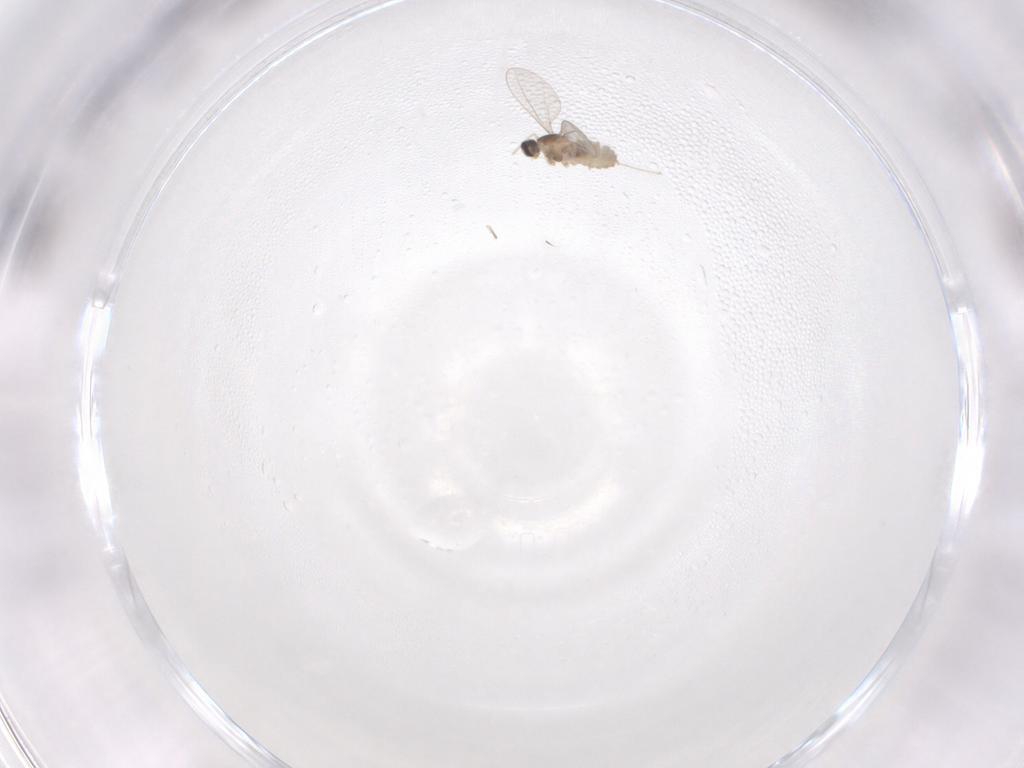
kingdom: Animalia
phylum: Arthropoda
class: Insecta
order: Diptera
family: Cecidomyiidae
